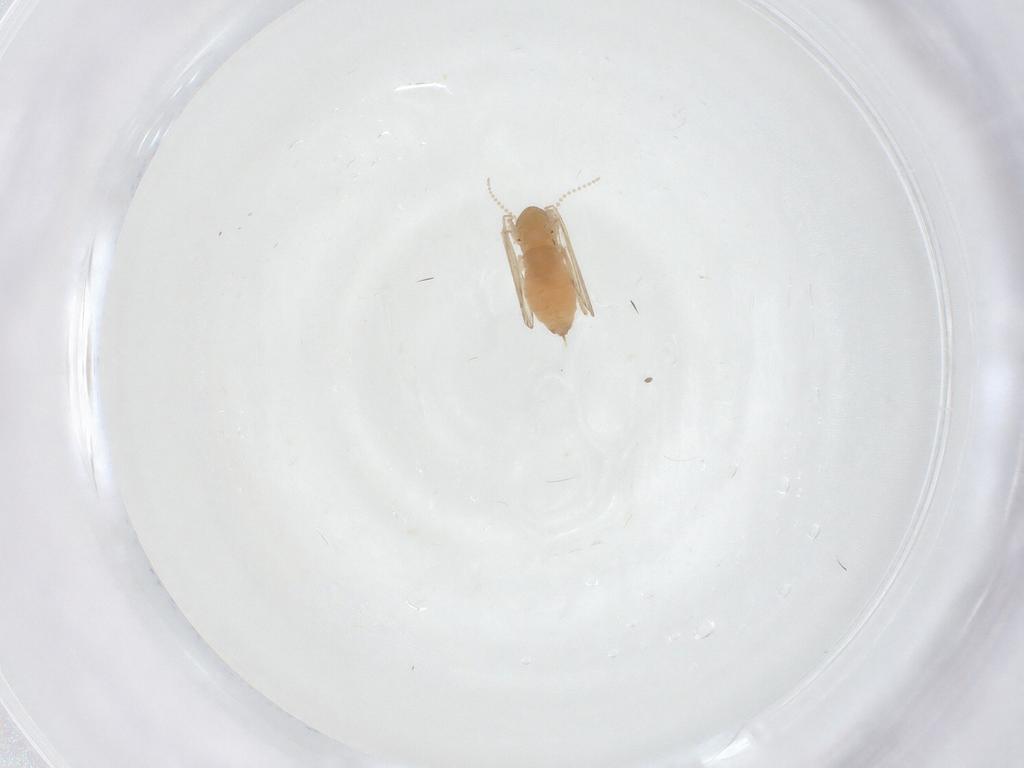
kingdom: Animalia
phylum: Arthropoda
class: Insecta
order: Diptera
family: Psychodidae
